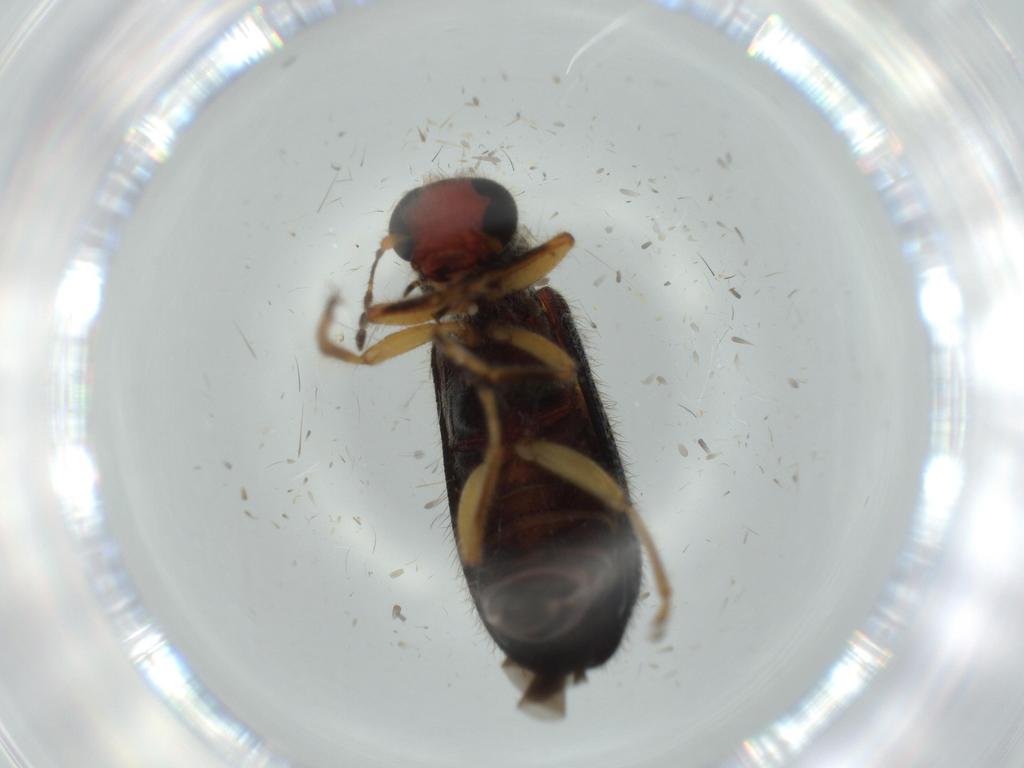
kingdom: Animalia
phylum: Arthropoda
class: Insecta
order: Coleoptera
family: Cleridae
